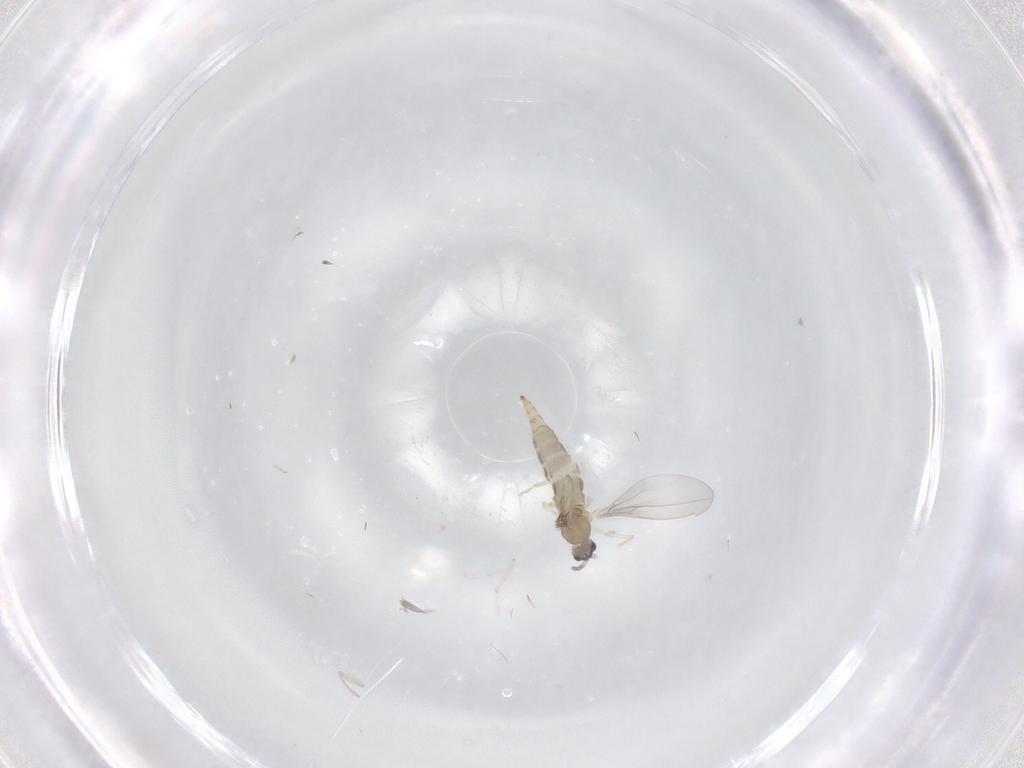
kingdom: Animalia
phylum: Arthropoda
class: Insecta
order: Diptera
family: Cecidomyiidae
